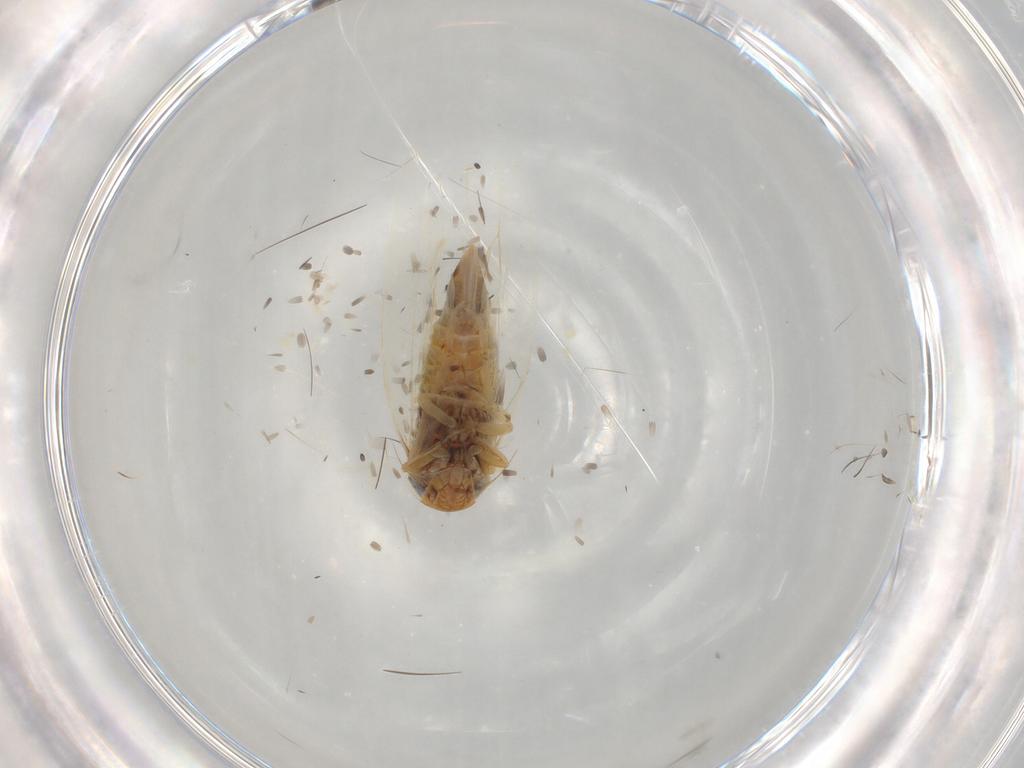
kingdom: Animalia
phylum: Arthropoda
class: Insecta
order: Hemiptera
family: Cicadellidae
